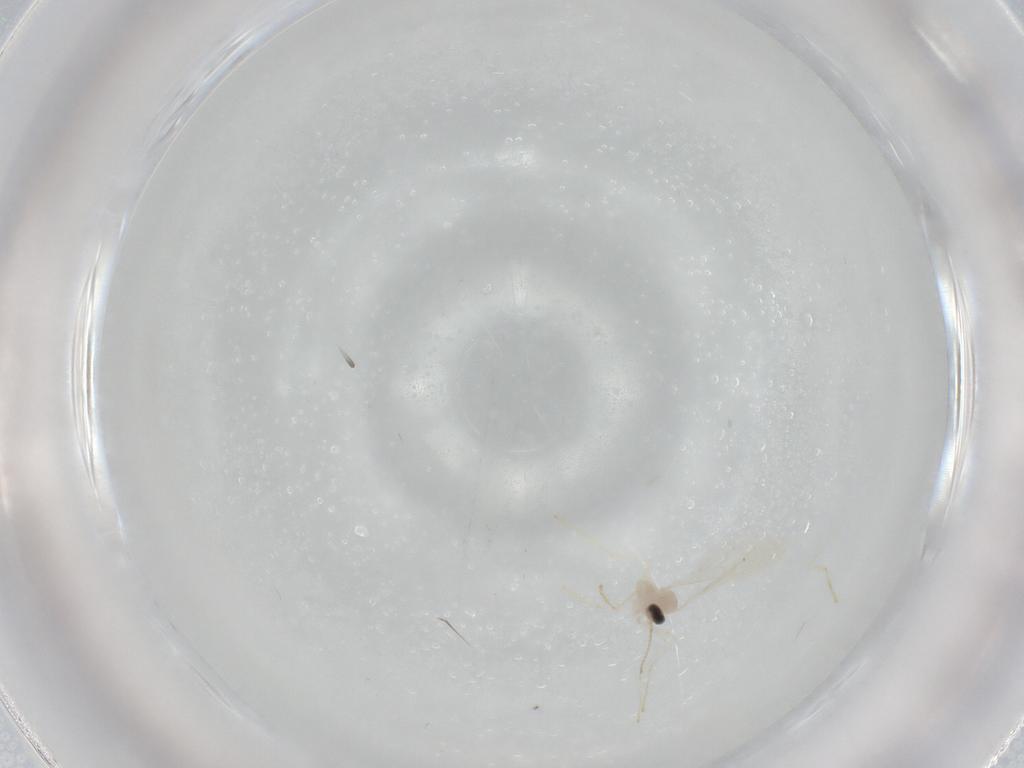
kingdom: Animalia
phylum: Arthropoda
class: Insecta
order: Diptera
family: Cecidomyiidae
